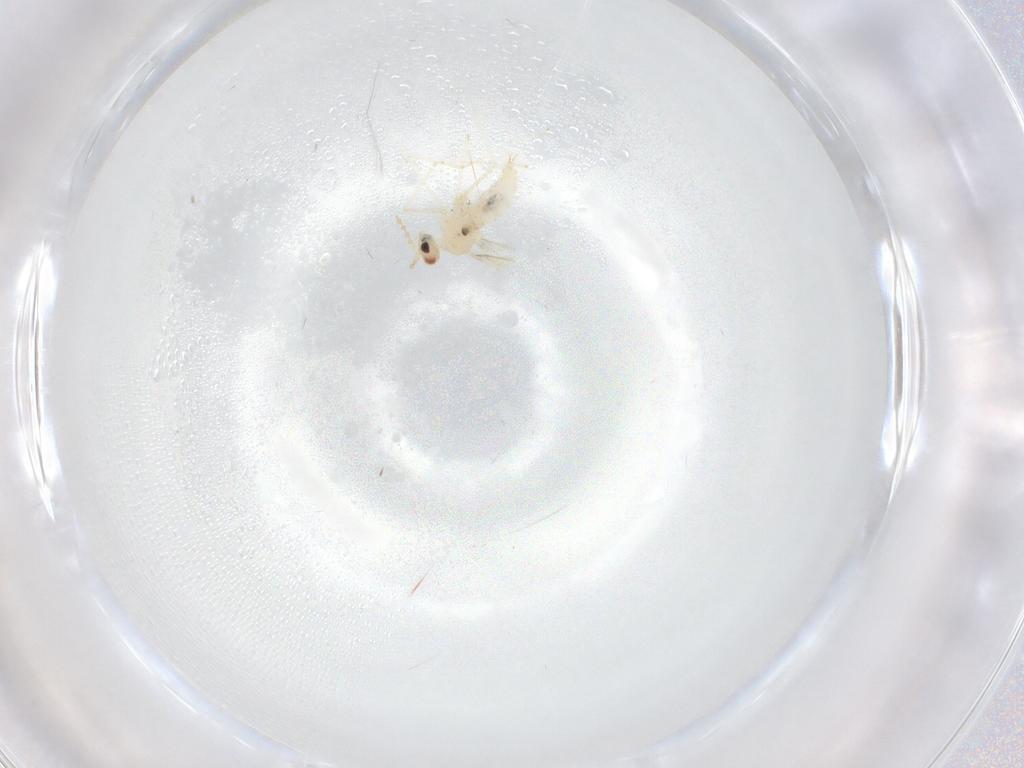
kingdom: Animalia
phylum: Arthropoda
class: Insecta
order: Diptera
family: Cecidomyiidae
